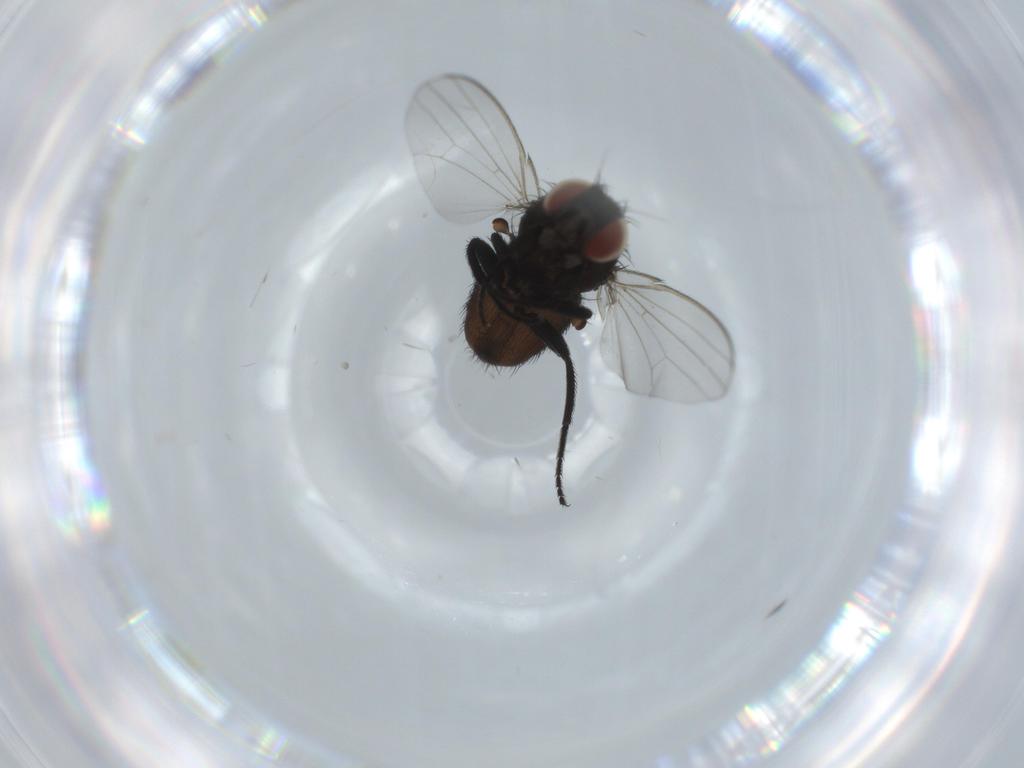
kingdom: Animalia
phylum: Arthropoda
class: Insecta
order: Diptera
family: Milichiidae
